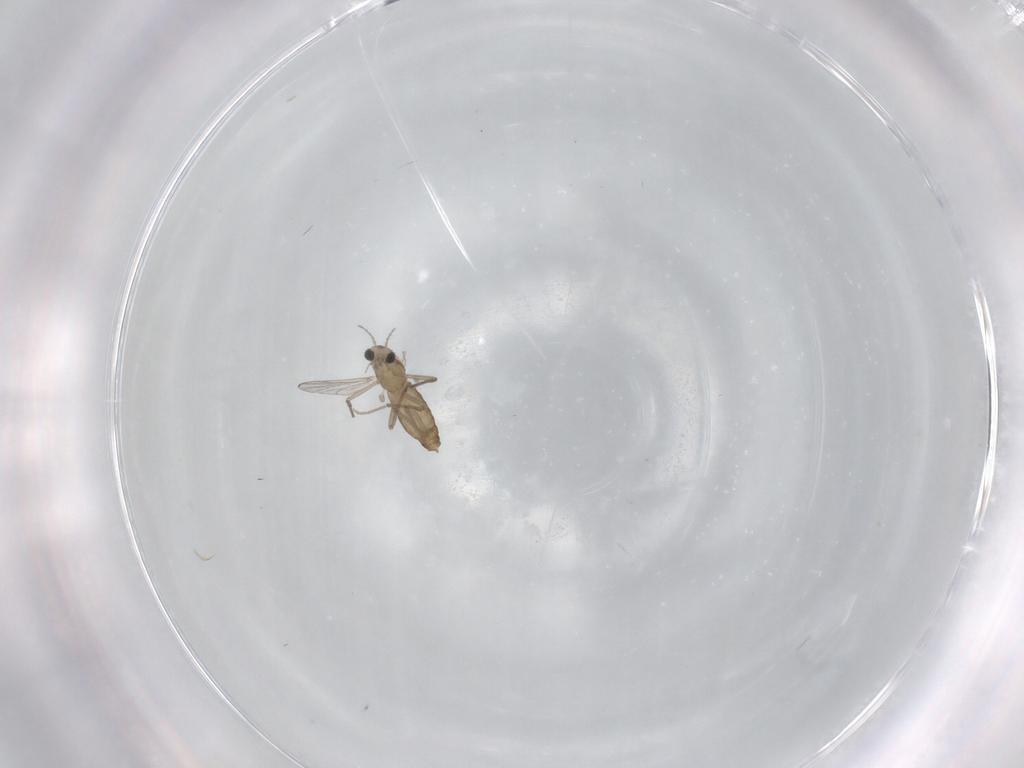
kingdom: Animalia
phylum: Arthropoda
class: Insecta
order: Diptera
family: Chironomidae
